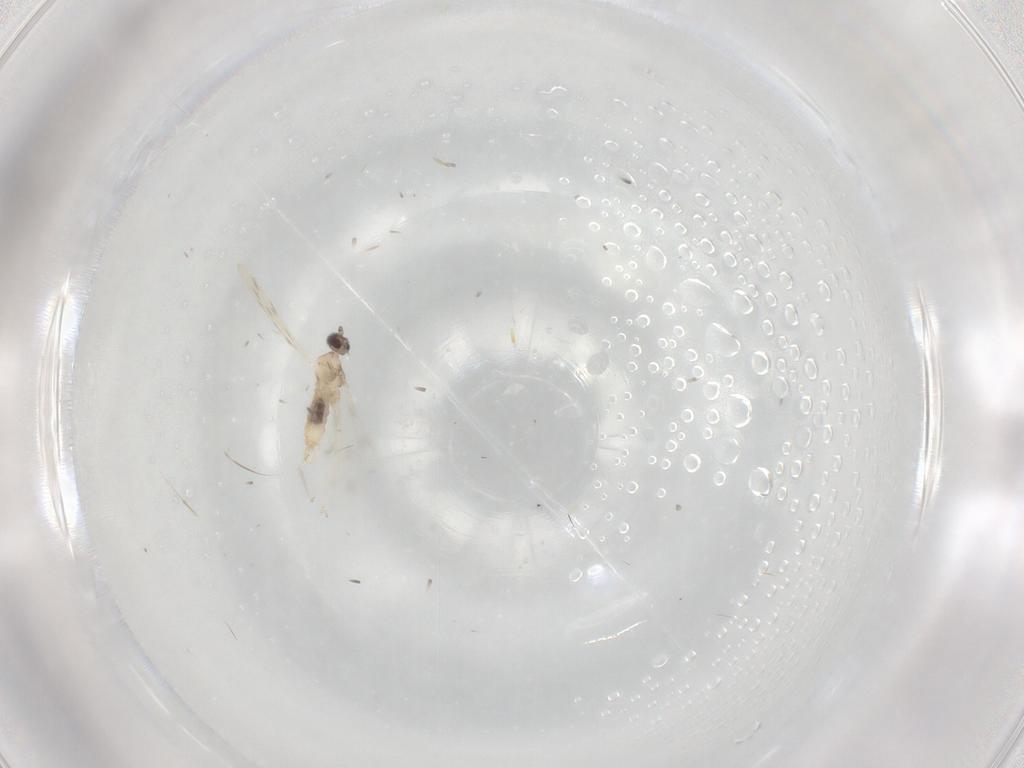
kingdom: Animalia
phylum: Arthropoda
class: Insecta
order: Diptera
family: Cecidomyiidae
